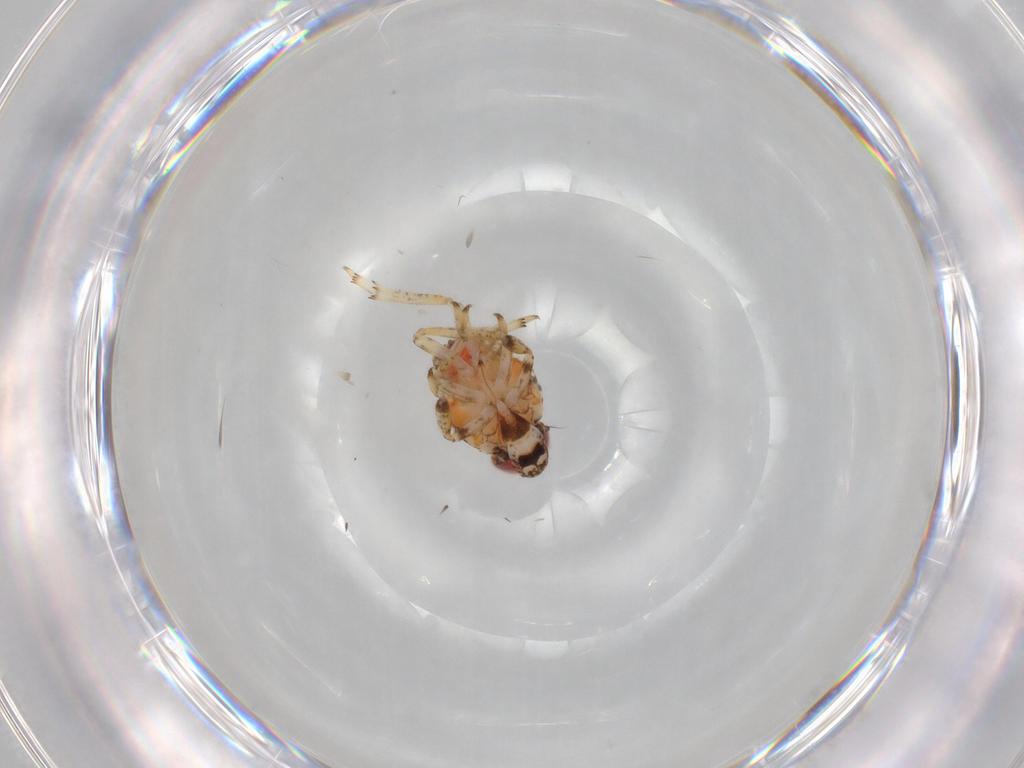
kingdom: Animalia
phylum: Arthropoda
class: Insecta
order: Hemiptera
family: Issidae
